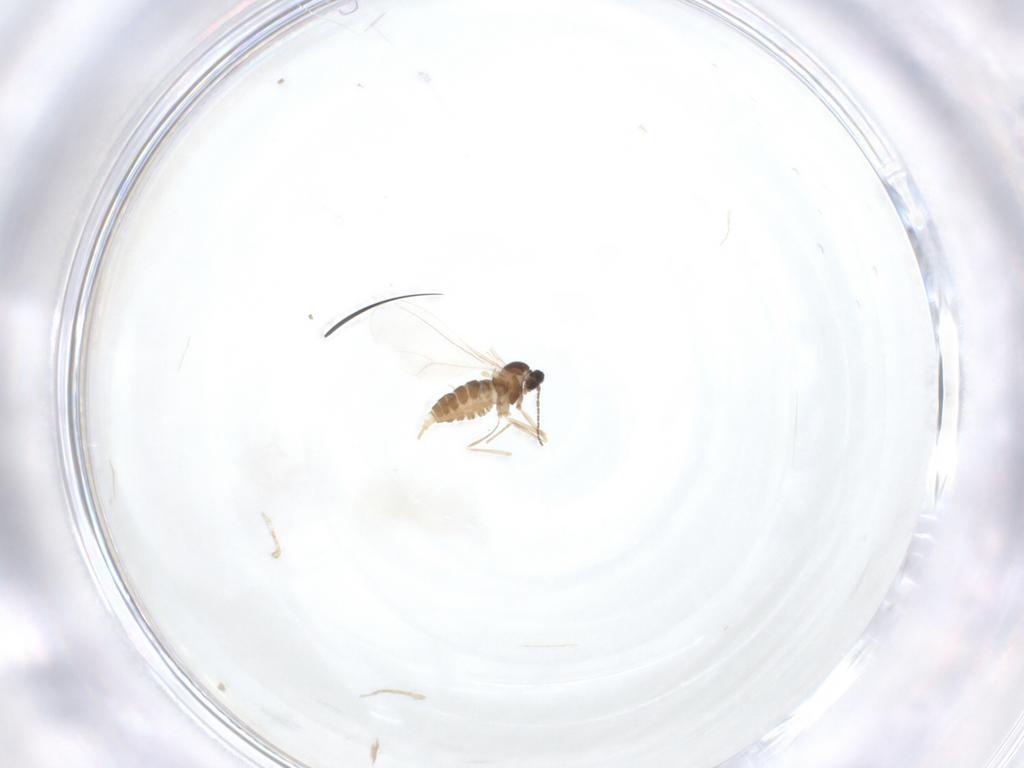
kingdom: Animalia
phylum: Arthropoda
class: Insecta
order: Diptera
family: Cecidomyiidae
